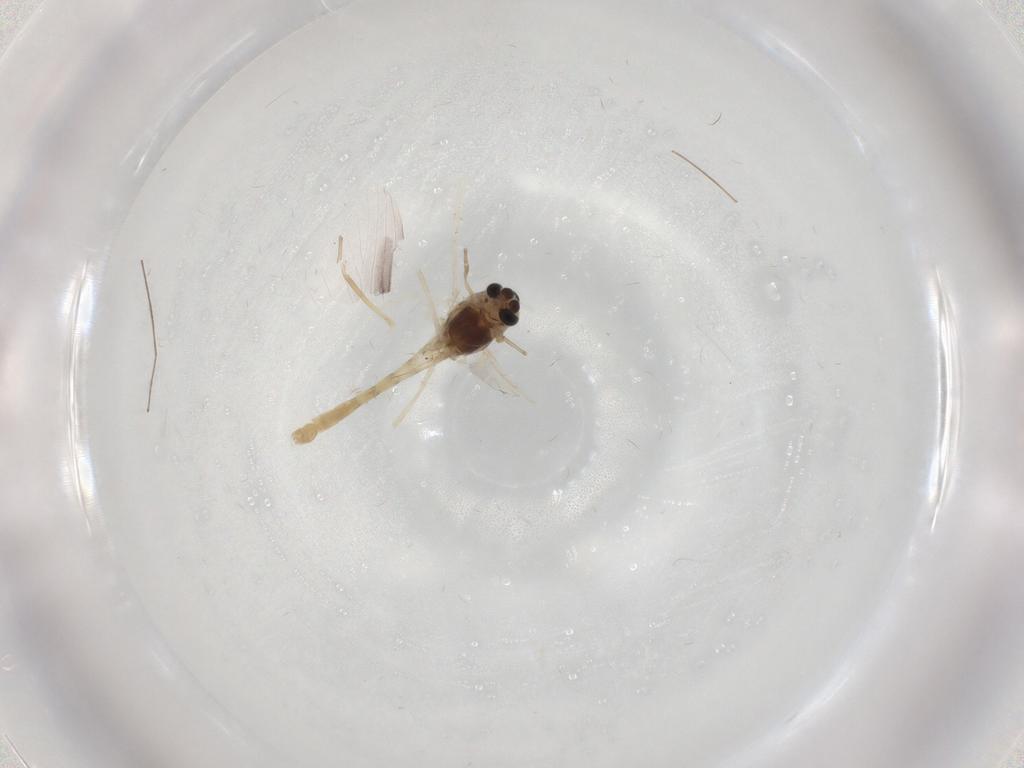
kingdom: Animalia
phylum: Arthropoda
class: Insecta
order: Diptera
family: Chironomidae
